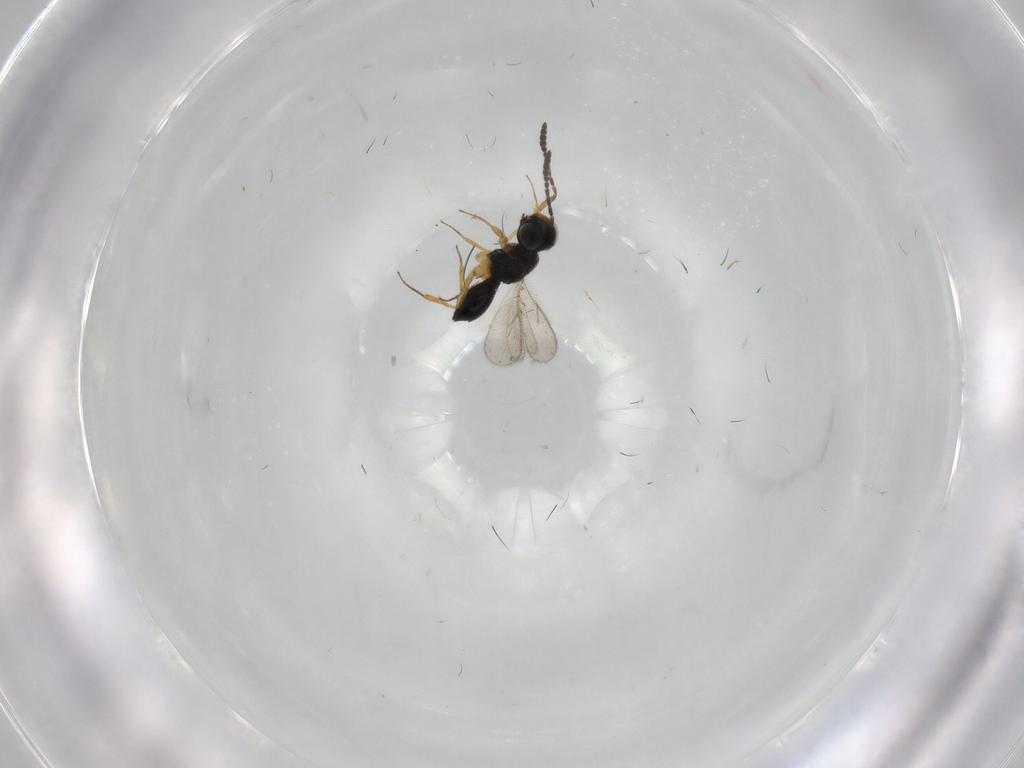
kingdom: Animalia
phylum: Arthropoda
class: Insecta
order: Hymenoptera
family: Scelionidae
